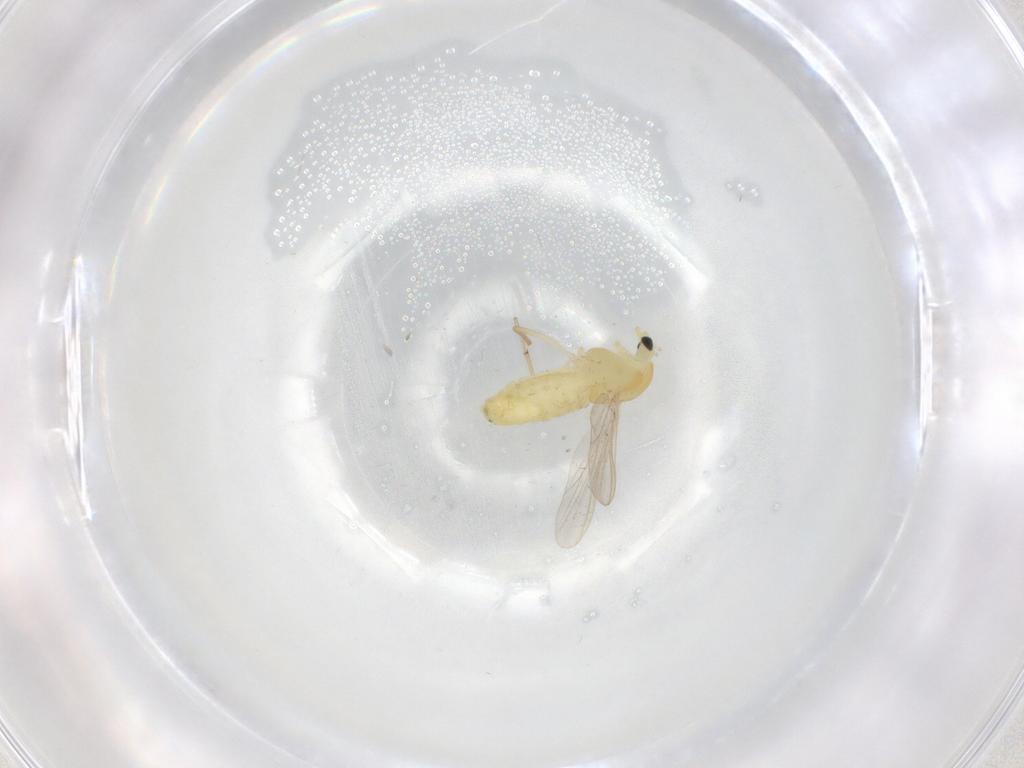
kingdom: Animalia
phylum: Arthropoda
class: Insecta
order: Diptera
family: Chironomidae
